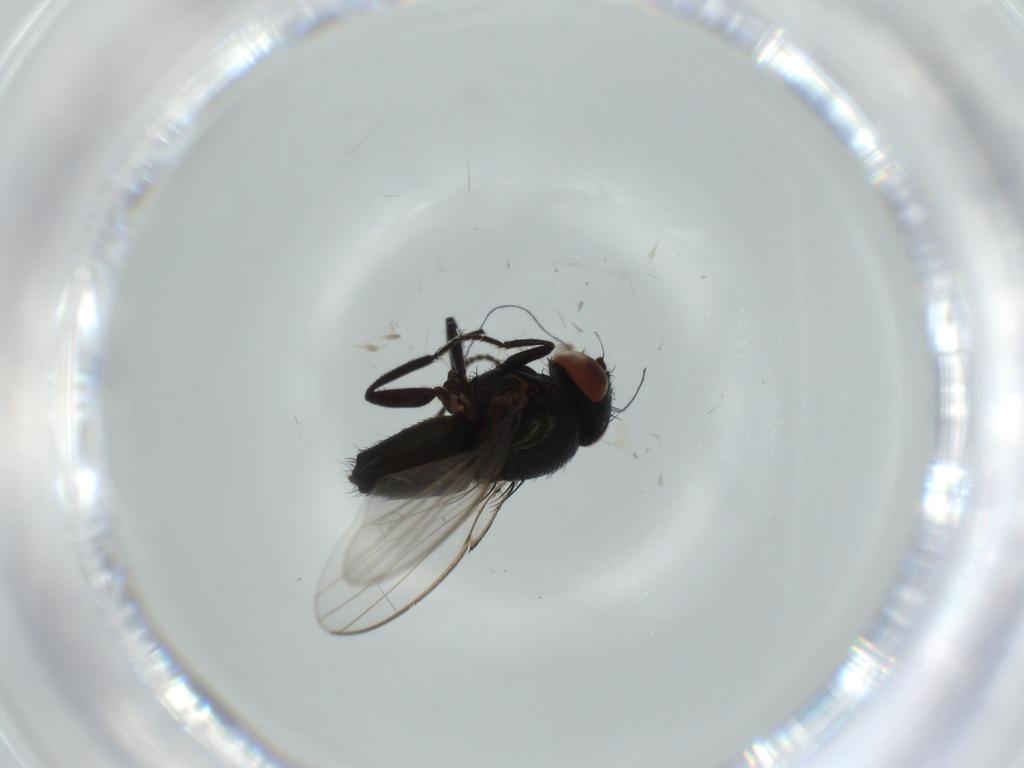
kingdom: Animalia
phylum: Arthropoda
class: Insecta
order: Diptera
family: Milichiidae
